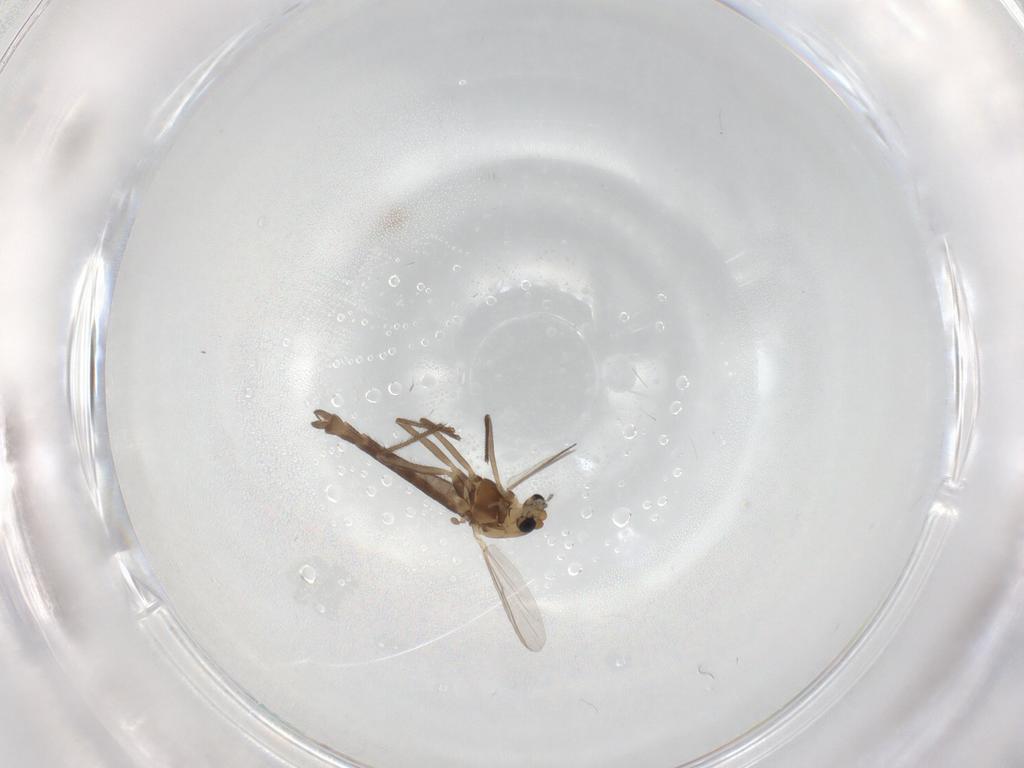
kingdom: Animalia
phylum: Arthropoda
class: Insecta
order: Diptera
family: Chironomidae
